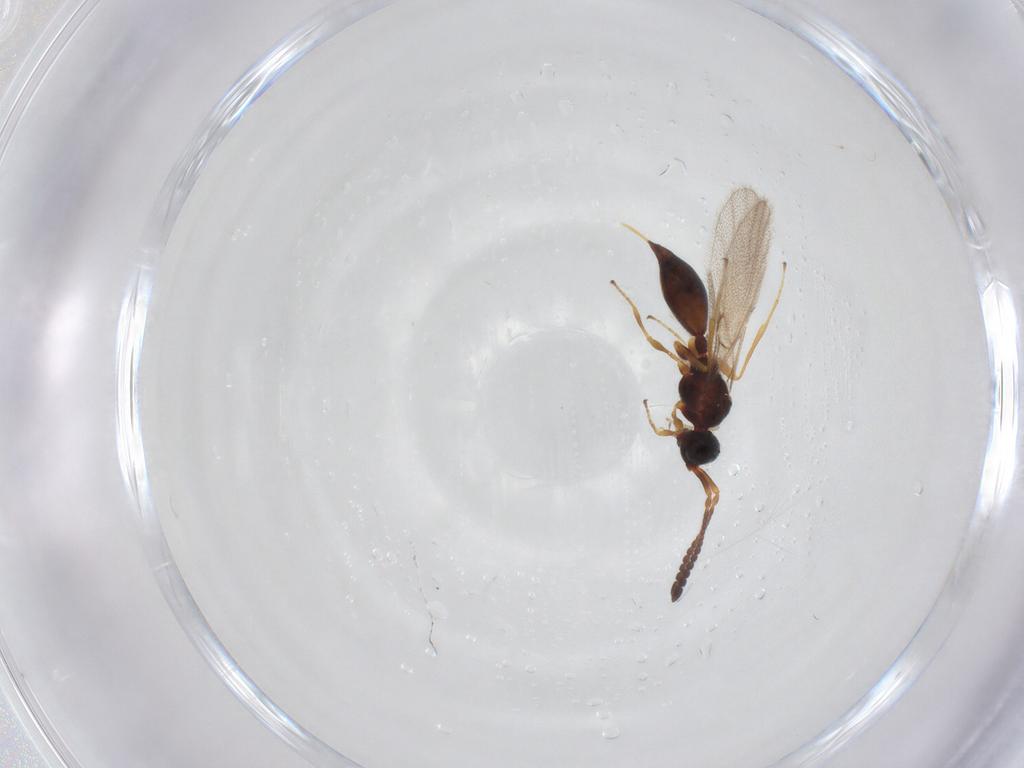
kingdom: Animalia
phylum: Arthropoda
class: Insecta
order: Hymenoptera
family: Diapriidae
